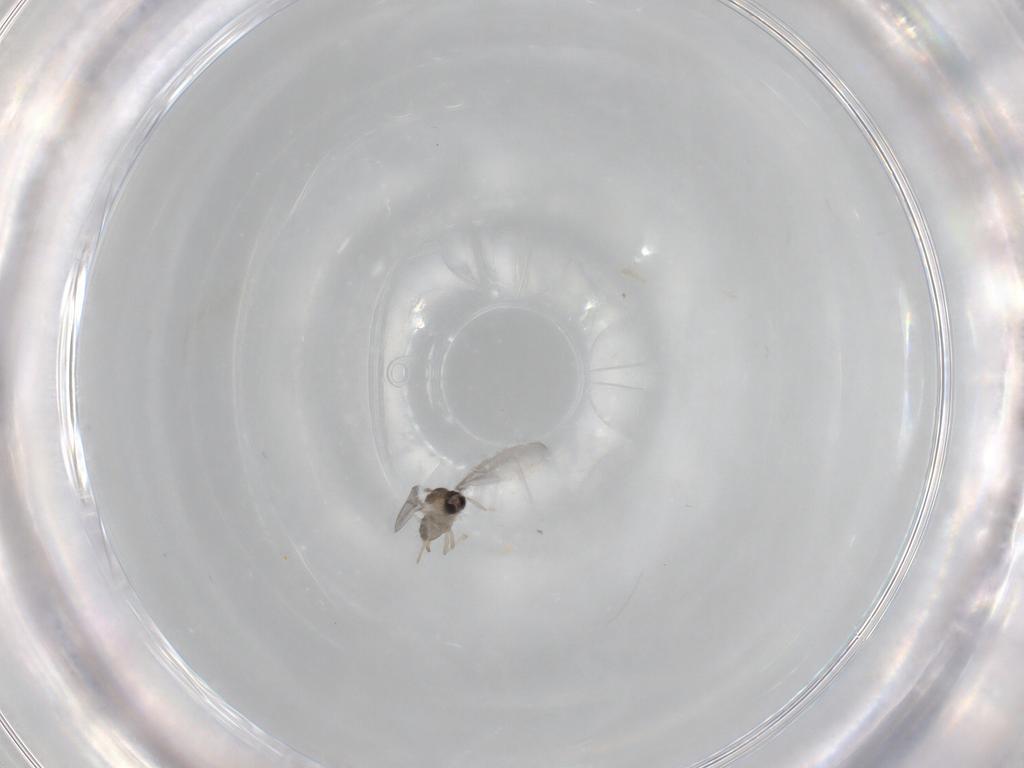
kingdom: Animalia
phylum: Arthropoda
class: Insecta
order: Diptera
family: Cecidomyiidae
